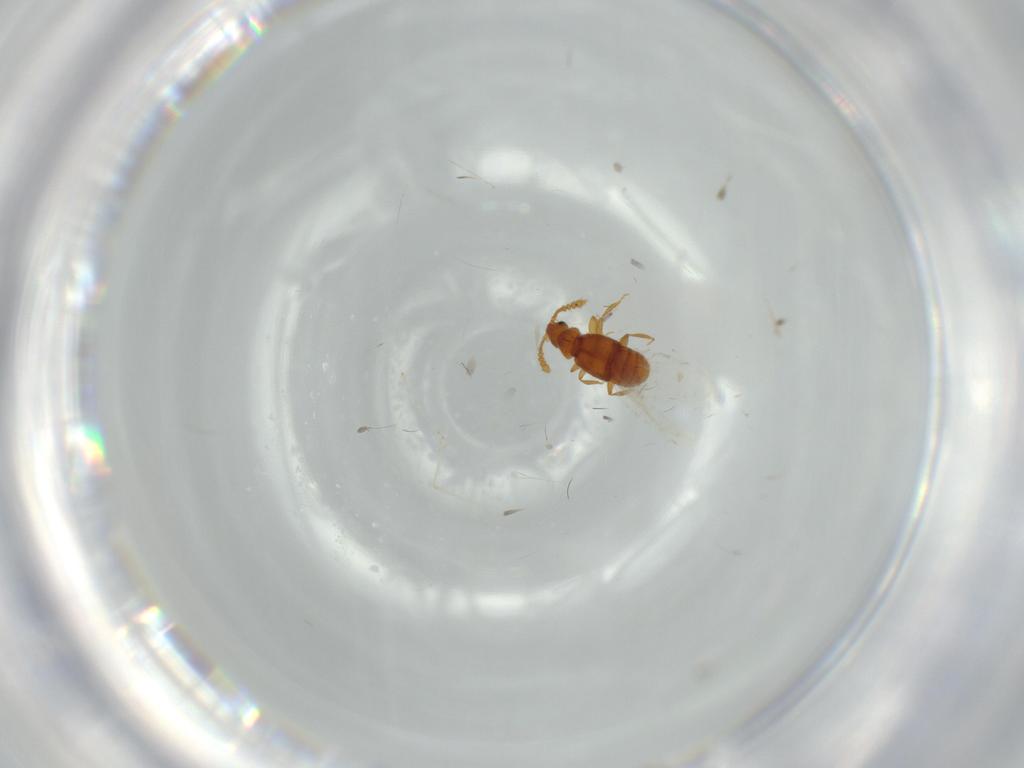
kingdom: Animalia
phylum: Arthropoda
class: Insecta
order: Diptera
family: Cecidomyiidae
